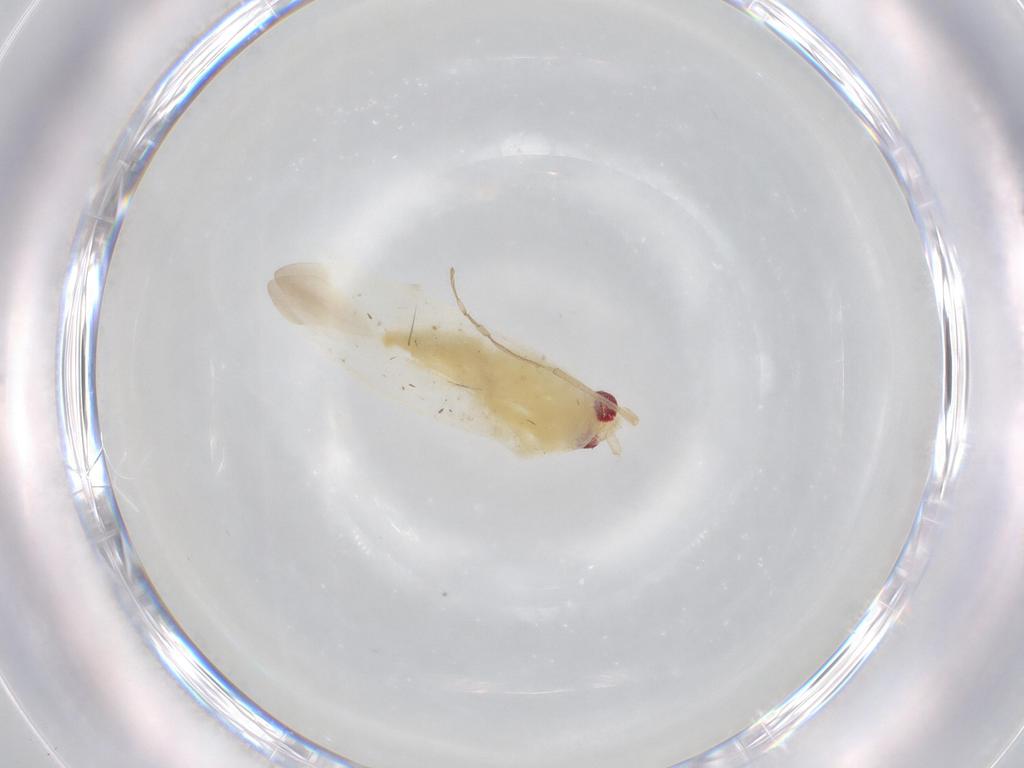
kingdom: Animalia
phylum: Arthropoda
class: Insecta
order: Hemiptera
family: Miridae
